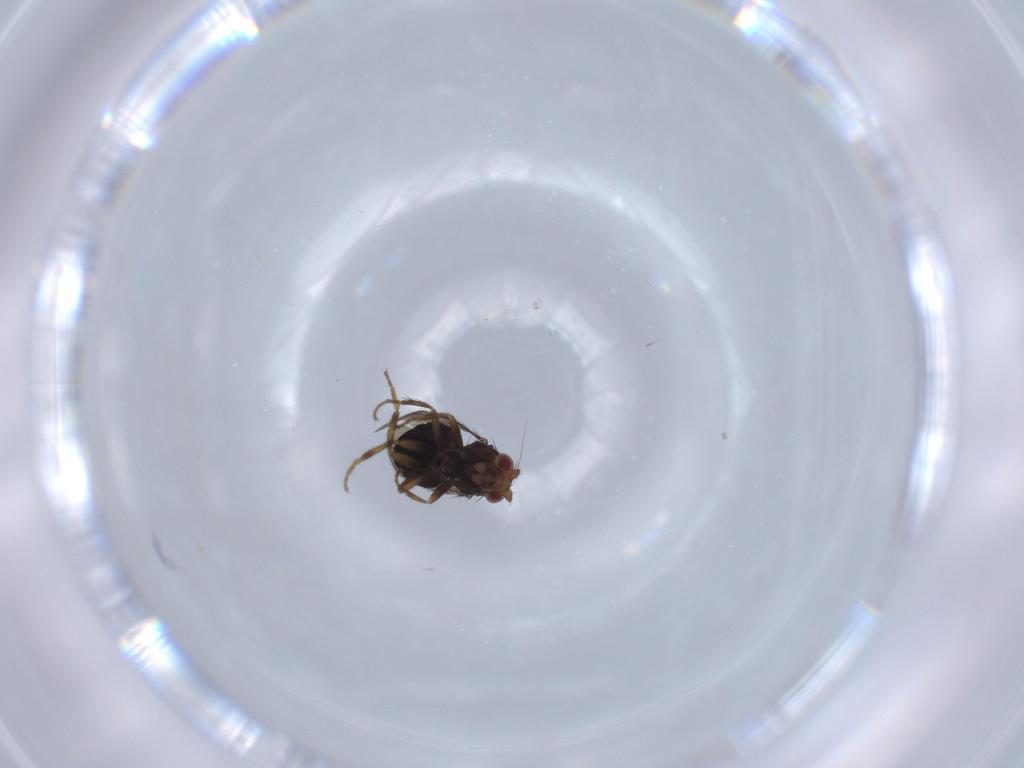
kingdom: Animalia
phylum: Arthropoda
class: Insecta
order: Diptera
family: Sphaeroceridae
